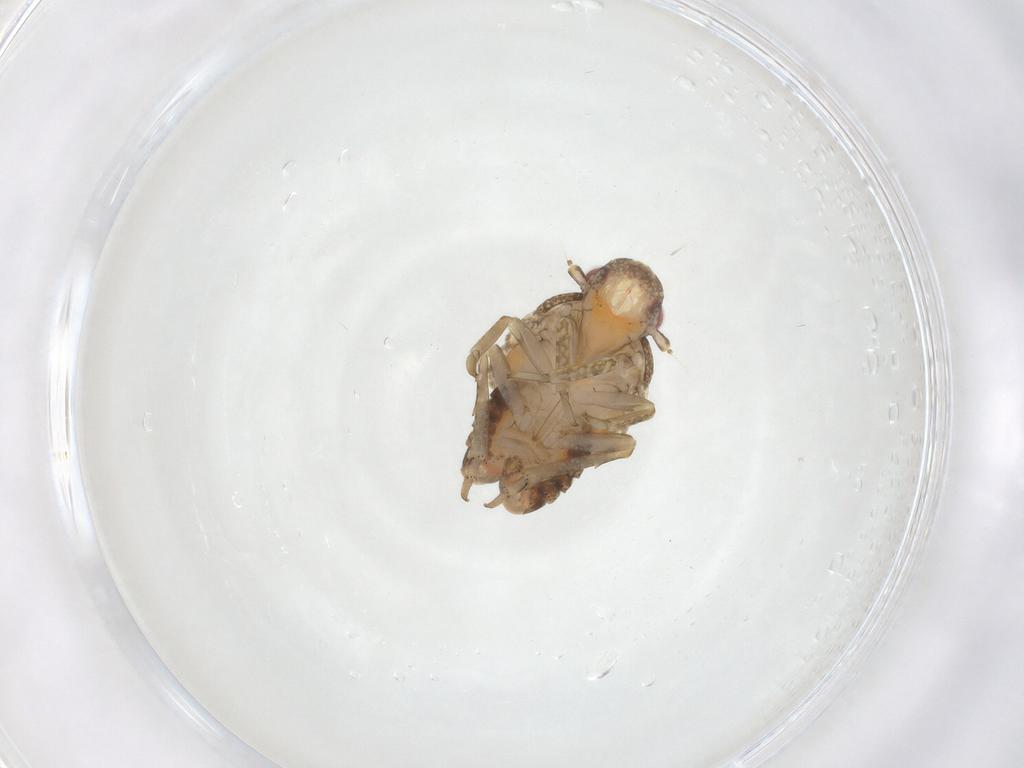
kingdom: Animalia
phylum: Arthropoda
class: Insecta
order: Hemiptera
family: Flatidae
